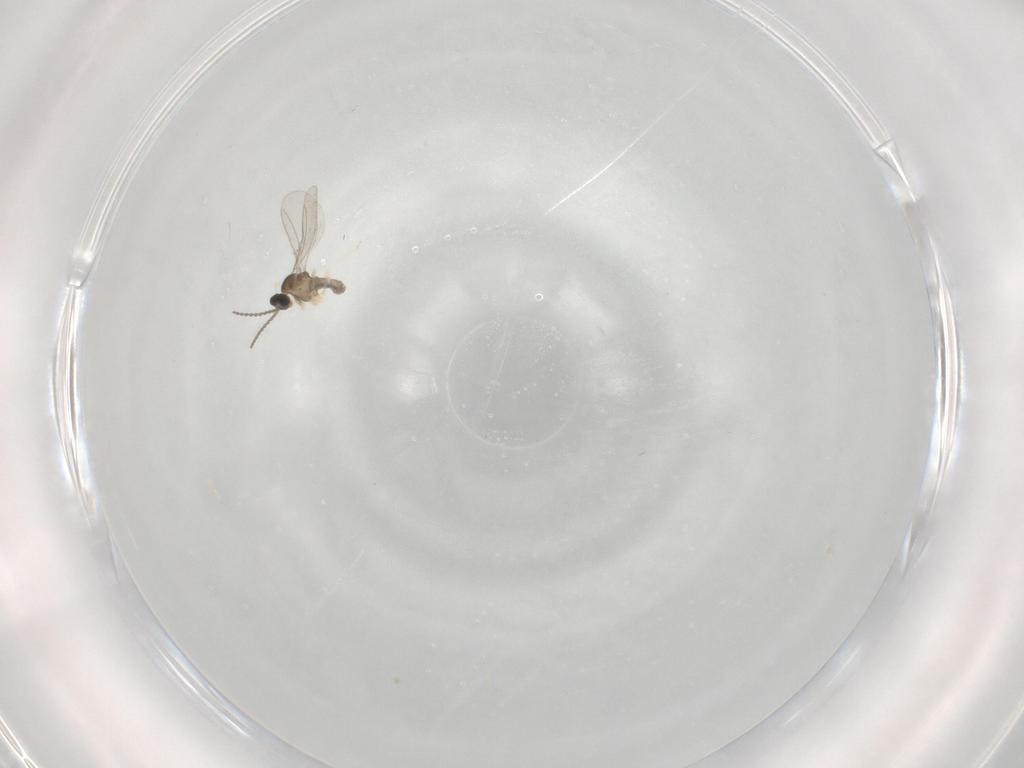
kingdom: Animalia
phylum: Arthropoda
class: Insecta
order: Diptera
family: Cecidomyiidae
